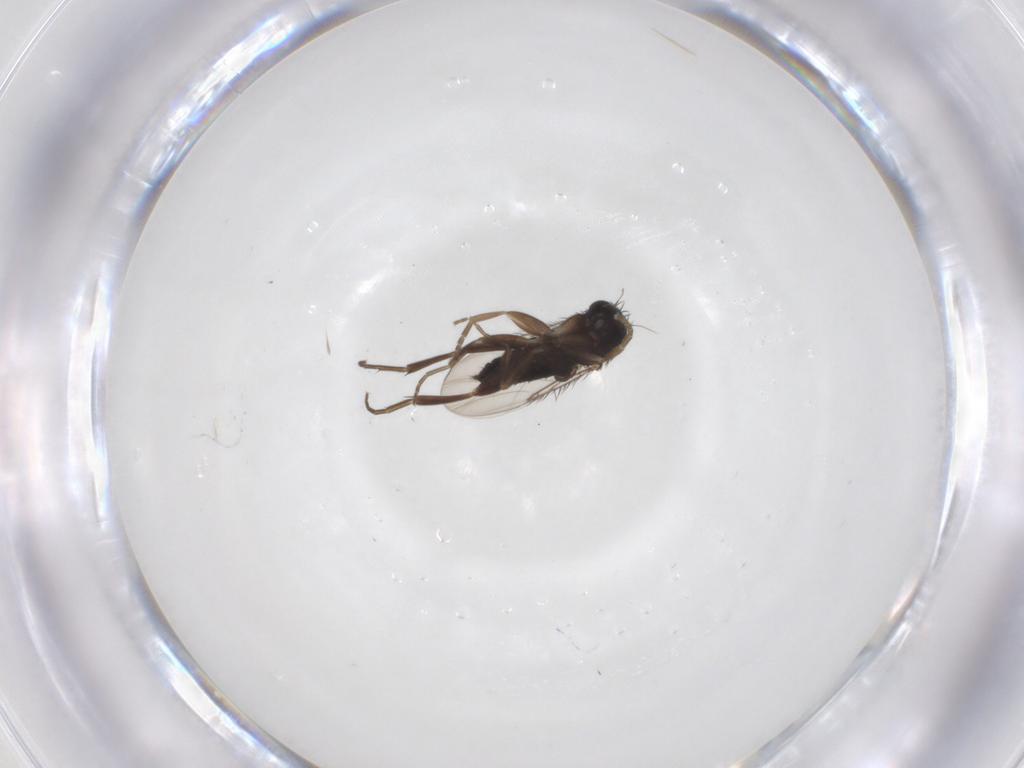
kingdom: Animalia
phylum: Arthropoda
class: Insecta
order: Diptera
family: Phoridae
